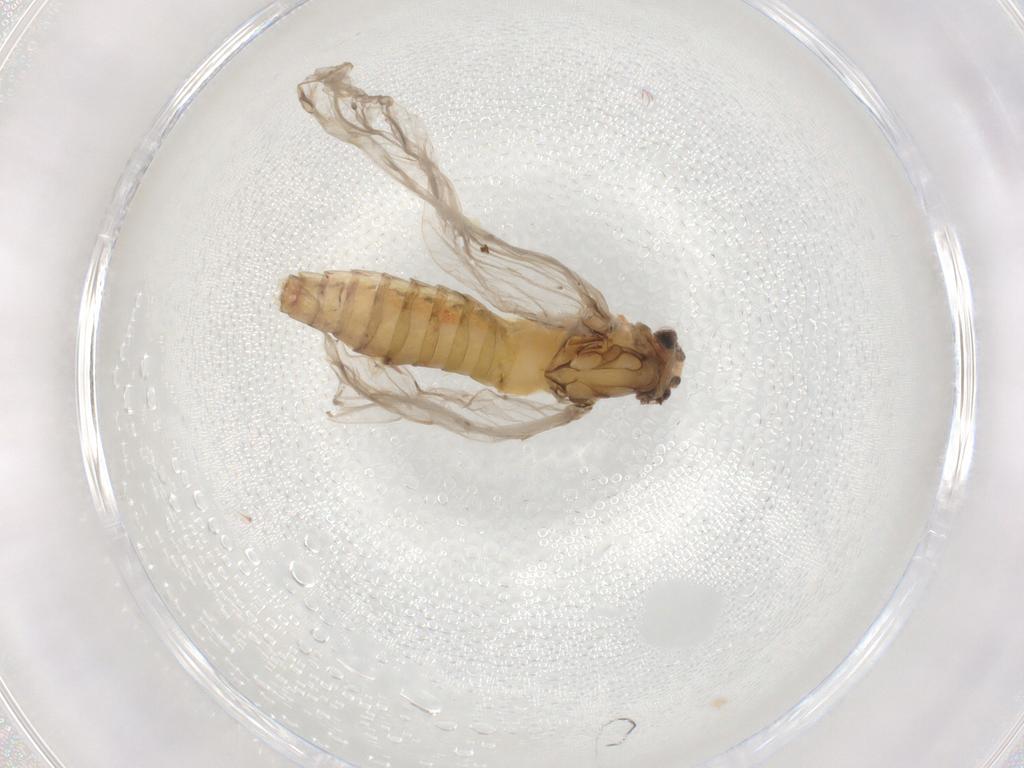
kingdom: Animalia
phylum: Arthropoda
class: Insecta
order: Ephemeroptera
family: Baetidae
